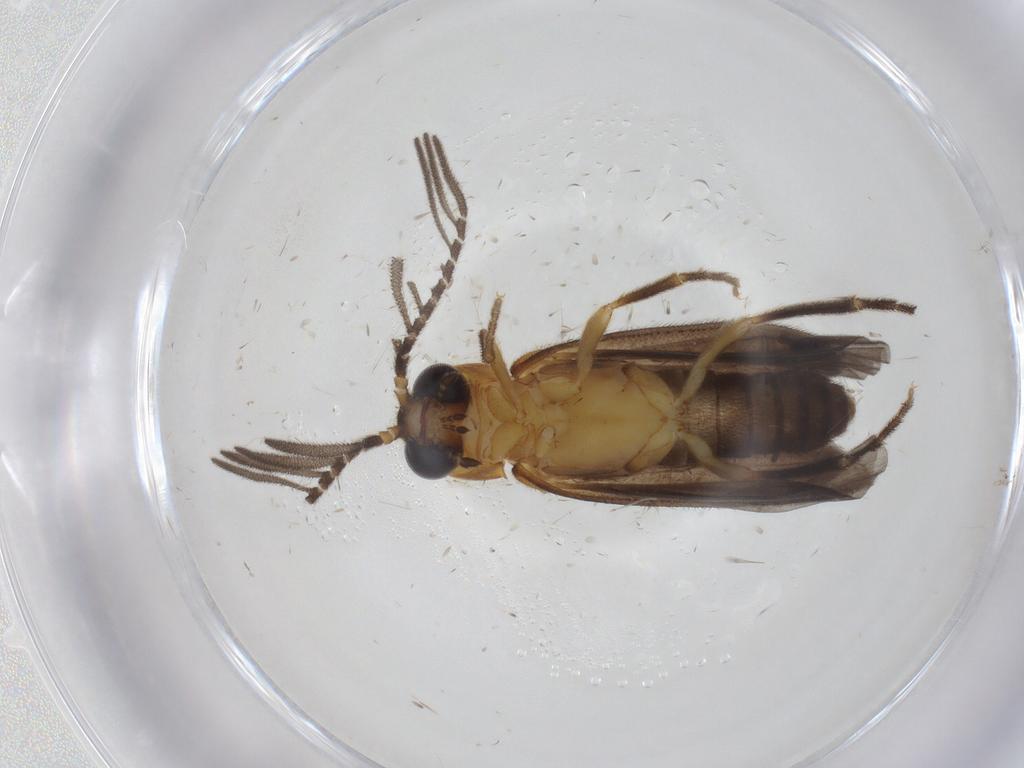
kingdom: Animalia
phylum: Arthropoda
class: Insecta
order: Coleoptera
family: Lampyridae
